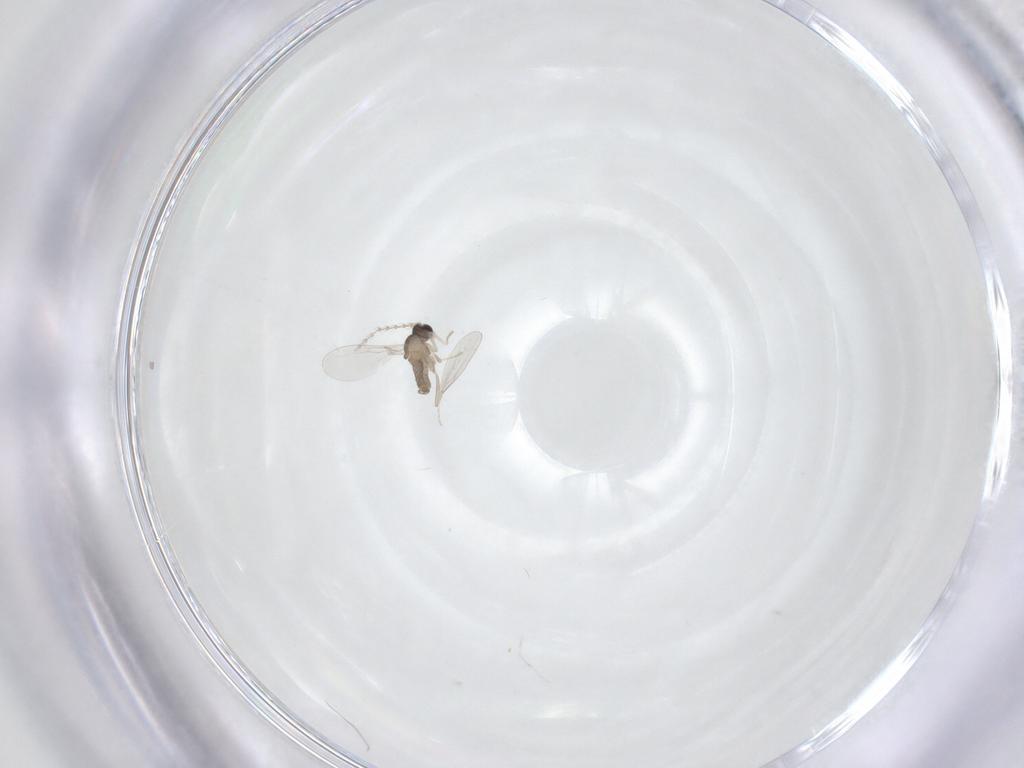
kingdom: Animalia
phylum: Arthropoda
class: Insecta
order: Diptera
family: Cecidomyiidae
